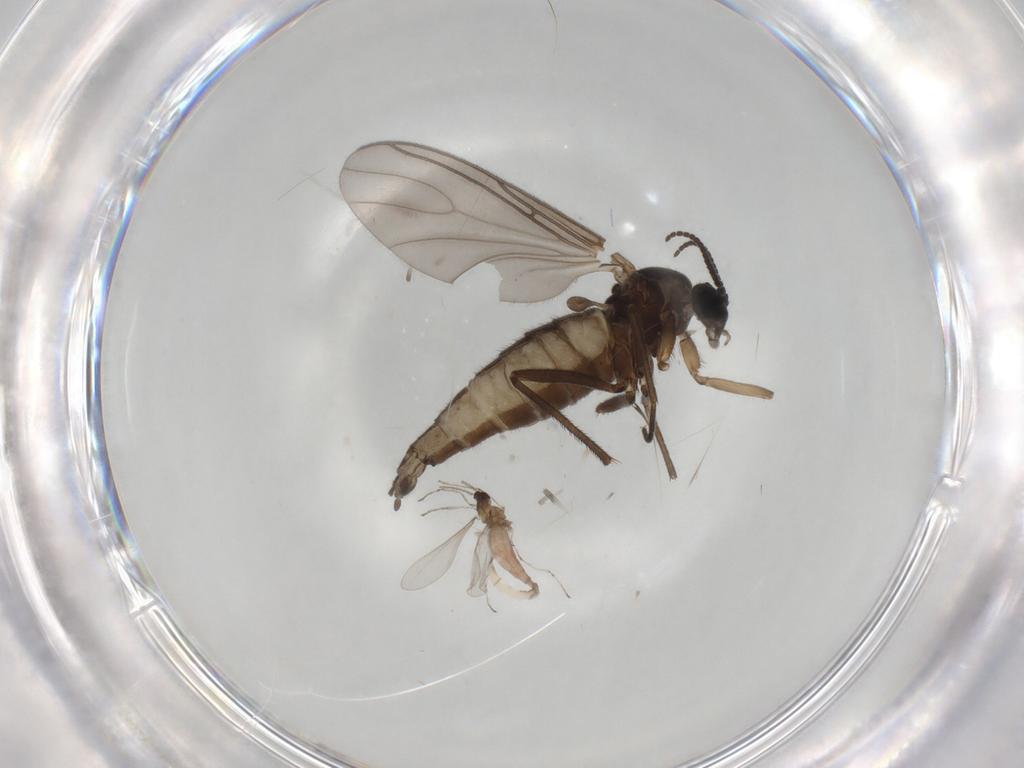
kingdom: Animalia
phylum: Arthropoda
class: Insecta
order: Diptera
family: Sciaridae
